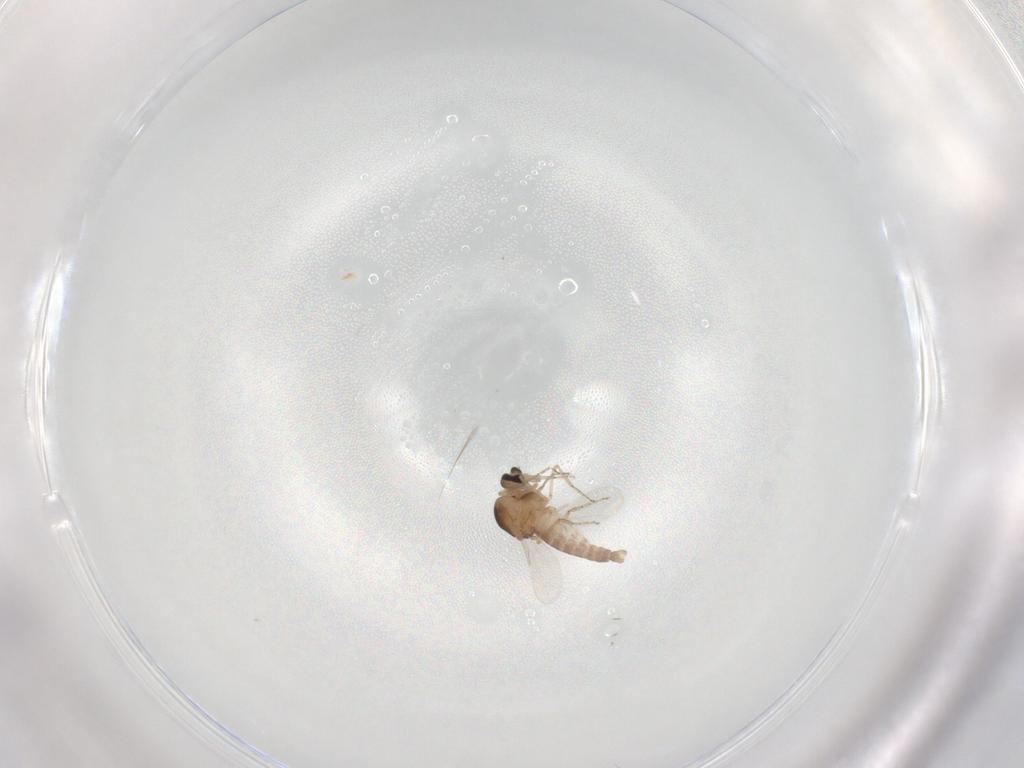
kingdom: Animalia
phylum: Arthropoda
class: Insecta
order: Diptera
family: Ceratopogonidae
